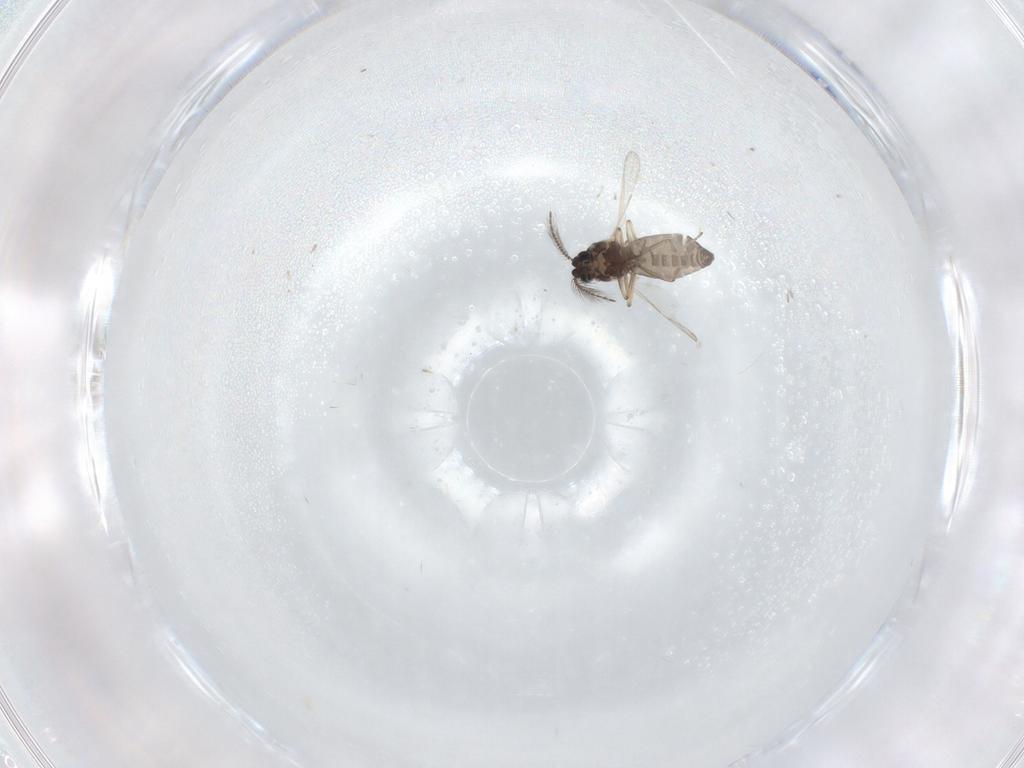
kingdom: Animalia
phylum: Arthropoda
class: Insecta
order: Diptera
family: Ceratopogonidae
